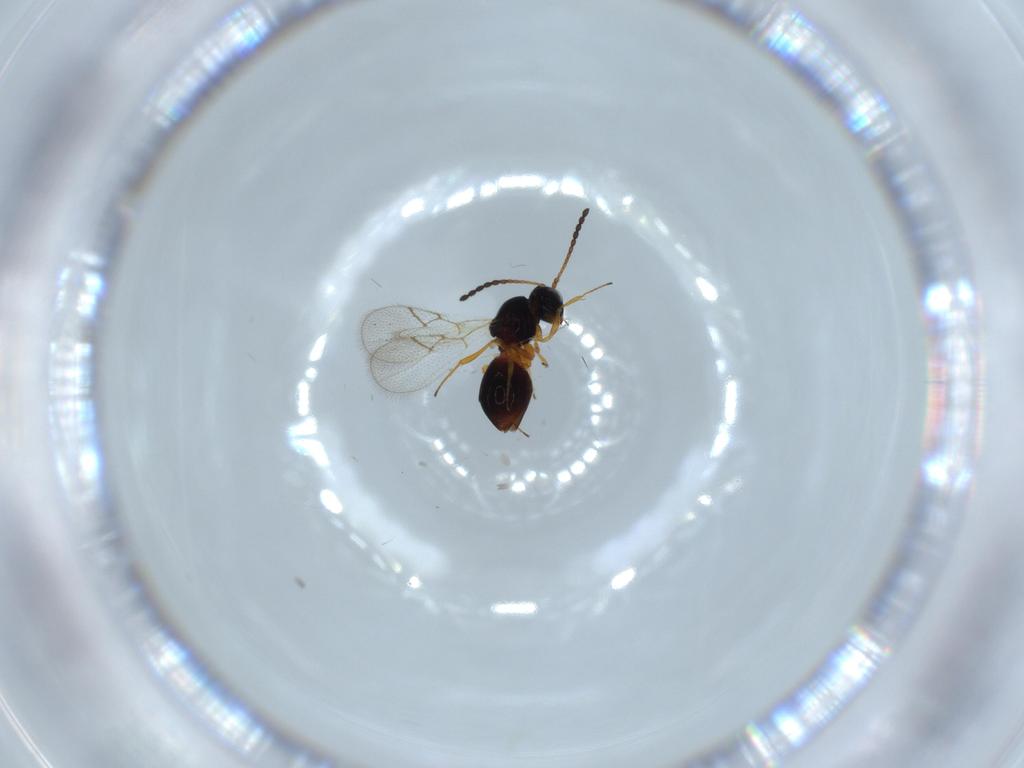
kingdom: Animalia
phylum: Arthropoda
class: Insecta
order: Hymenoptera
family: Figitidae
